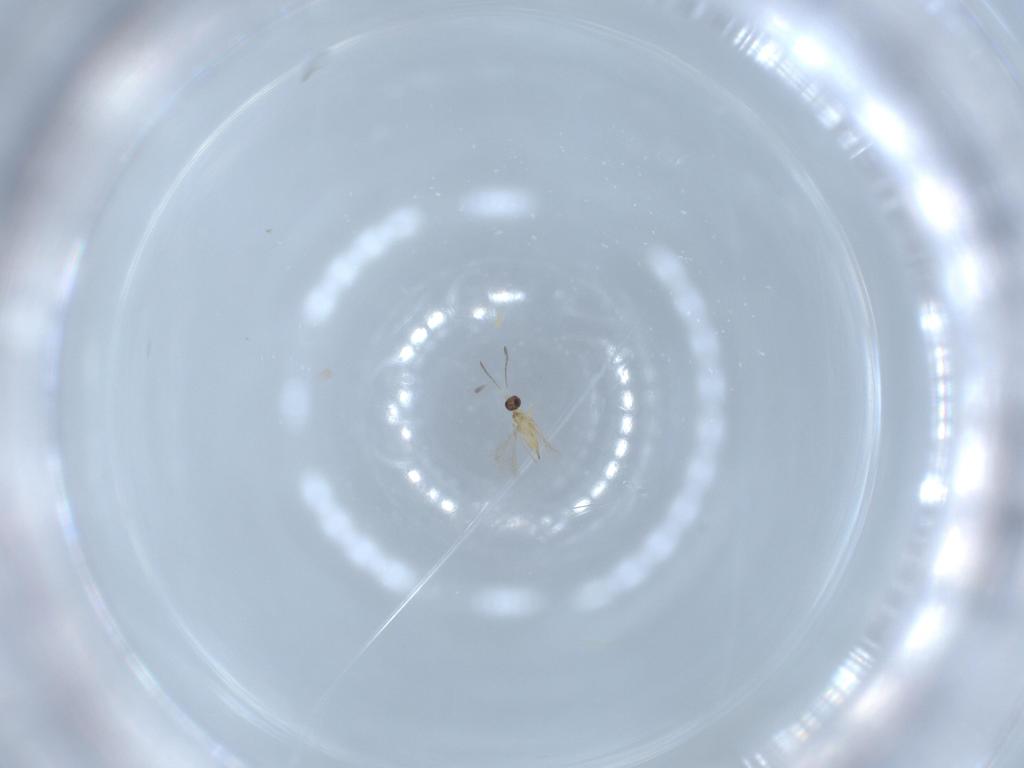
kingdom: Animalia
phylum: Arthropoda
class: Insecta
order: Hymenoptera
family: Mymaridae
